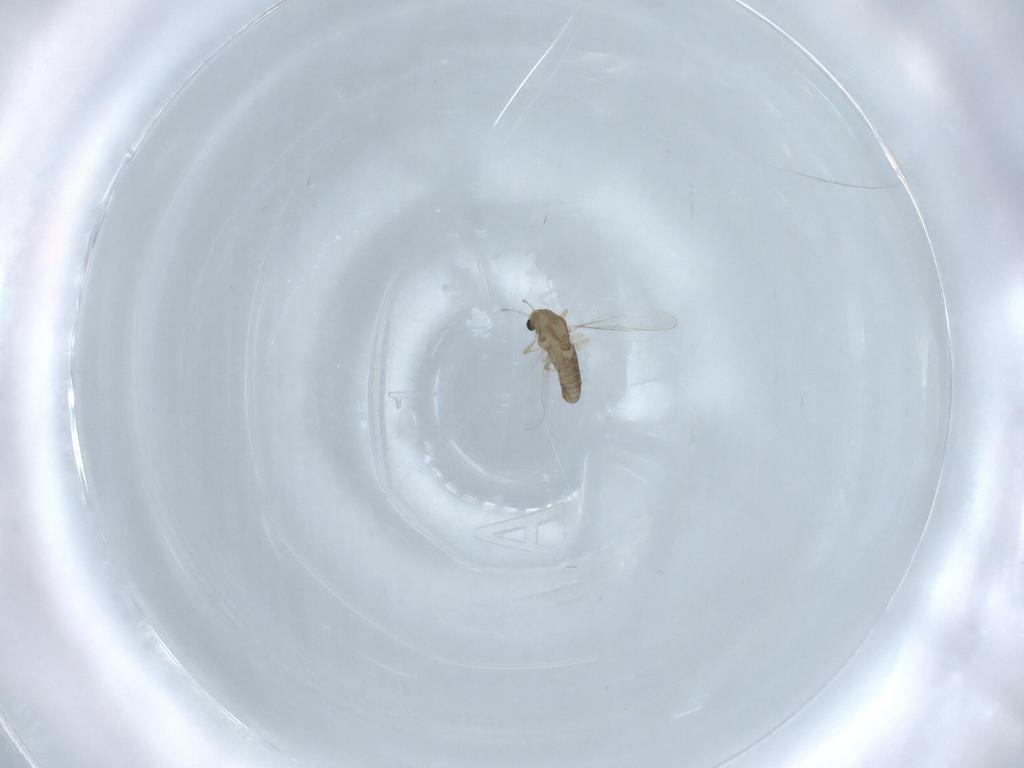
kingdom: Animalia
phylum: Arthropoda
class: Insecta
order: Diptera
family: Chironomidae
